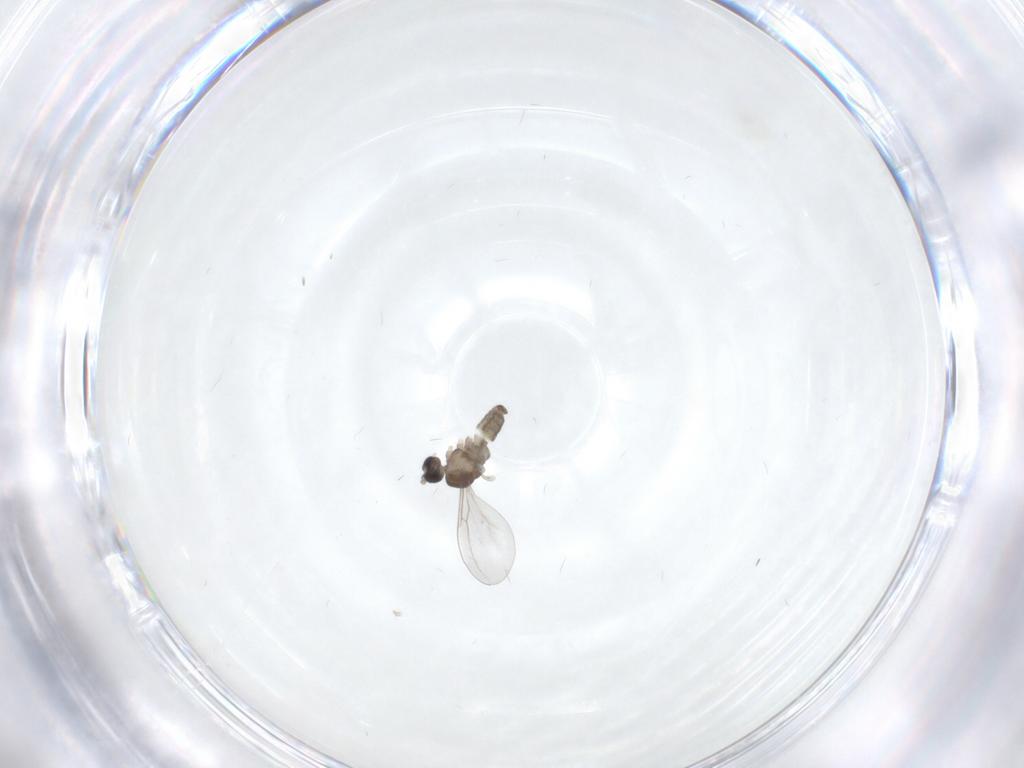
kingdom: Animalia
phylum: Arthropoda
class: Insecta
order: Diptera
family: Cecidomyiidae
